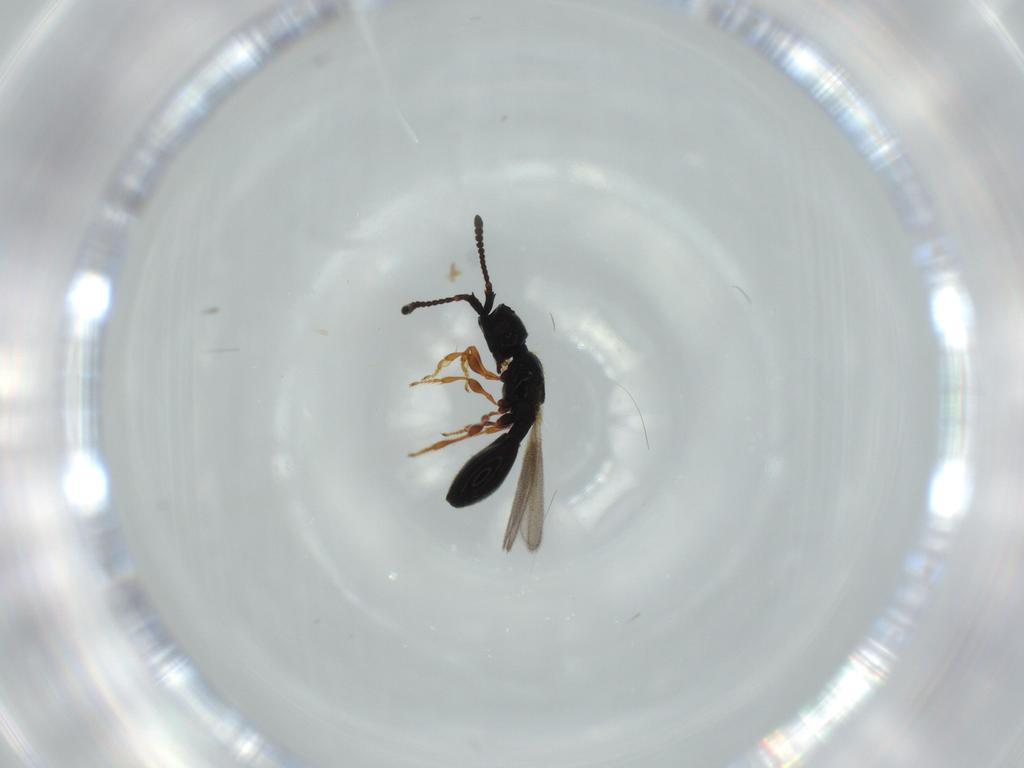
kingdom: Animalia
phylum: Arthropoda
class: Insecta
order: Hymenoptera
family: Diapriidae
